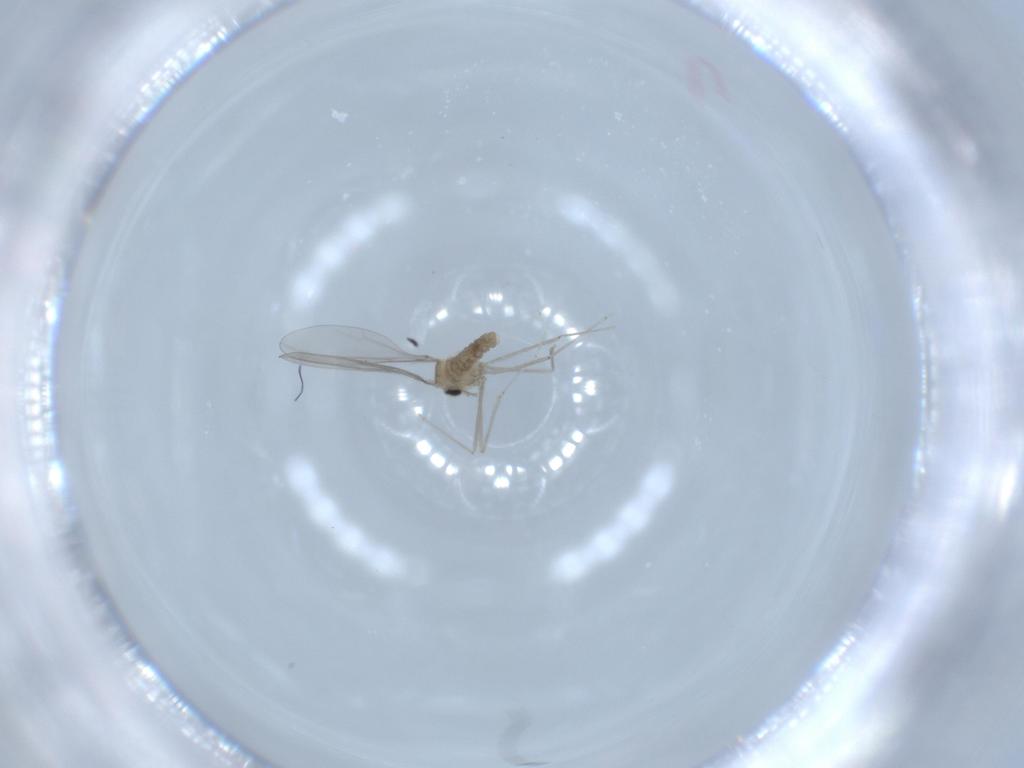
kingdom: Animalia
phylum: Arthropoda
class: Insecta
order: Diptera
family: Cecidomyiidae
